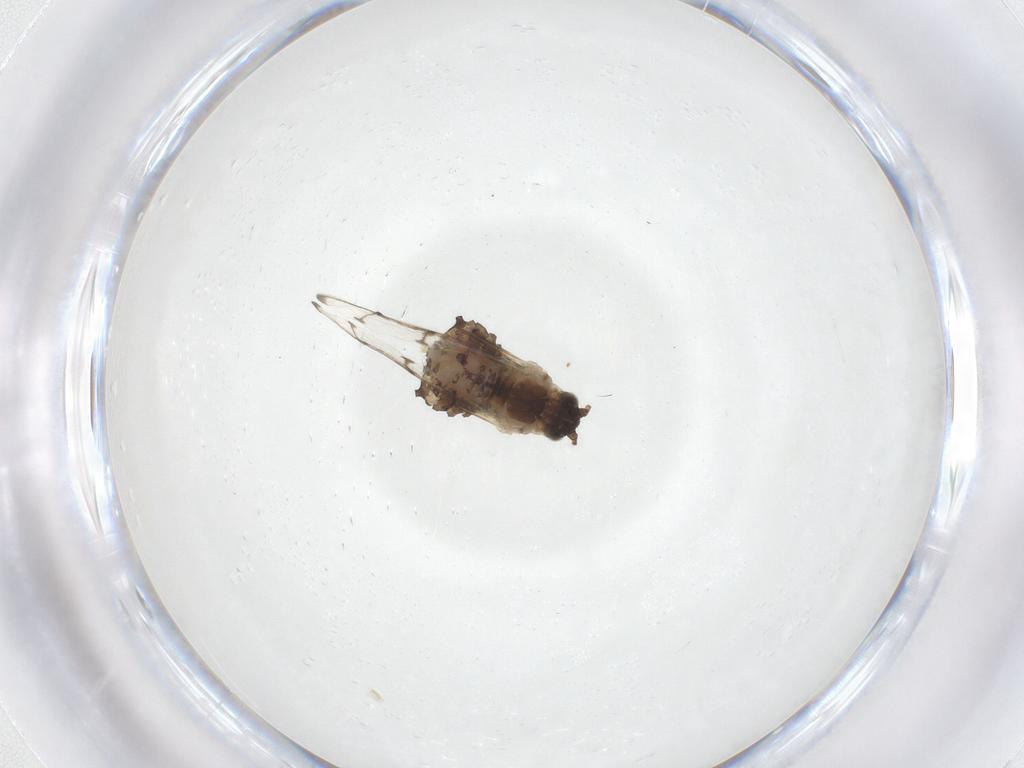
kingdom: Animalia
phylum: Arthropoda
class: Insecta
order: Hemiptera
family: Aphididae
